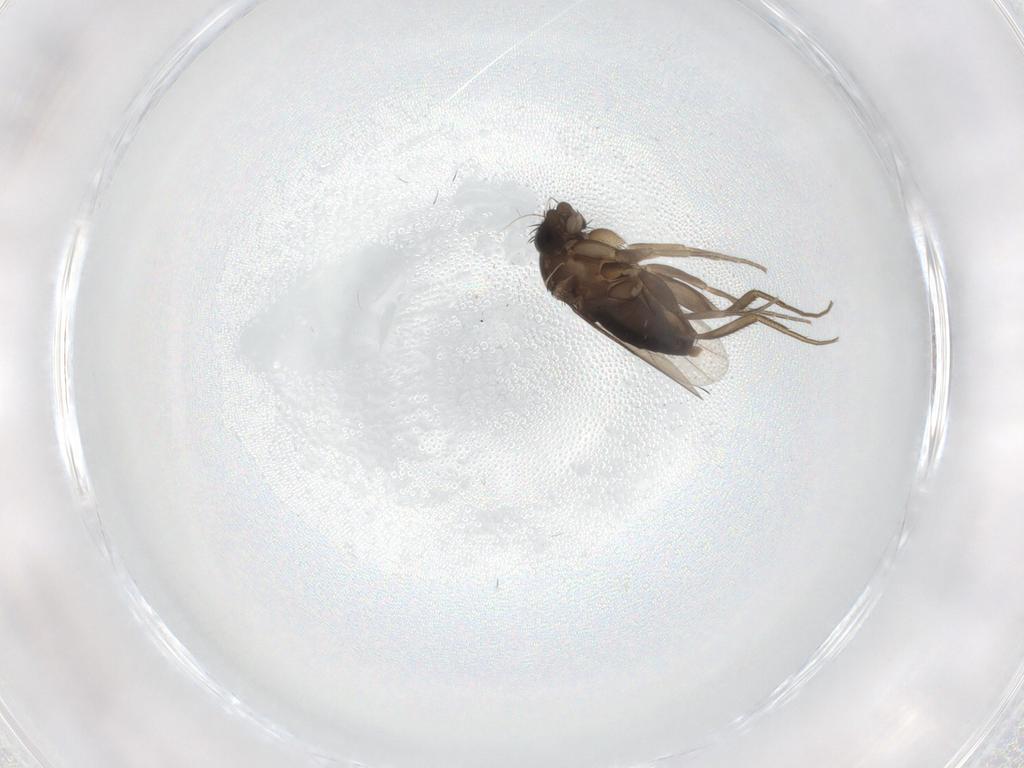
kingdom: Animalia
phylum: Arthropoda
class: Insecta
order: Diptera
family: Phoridae
